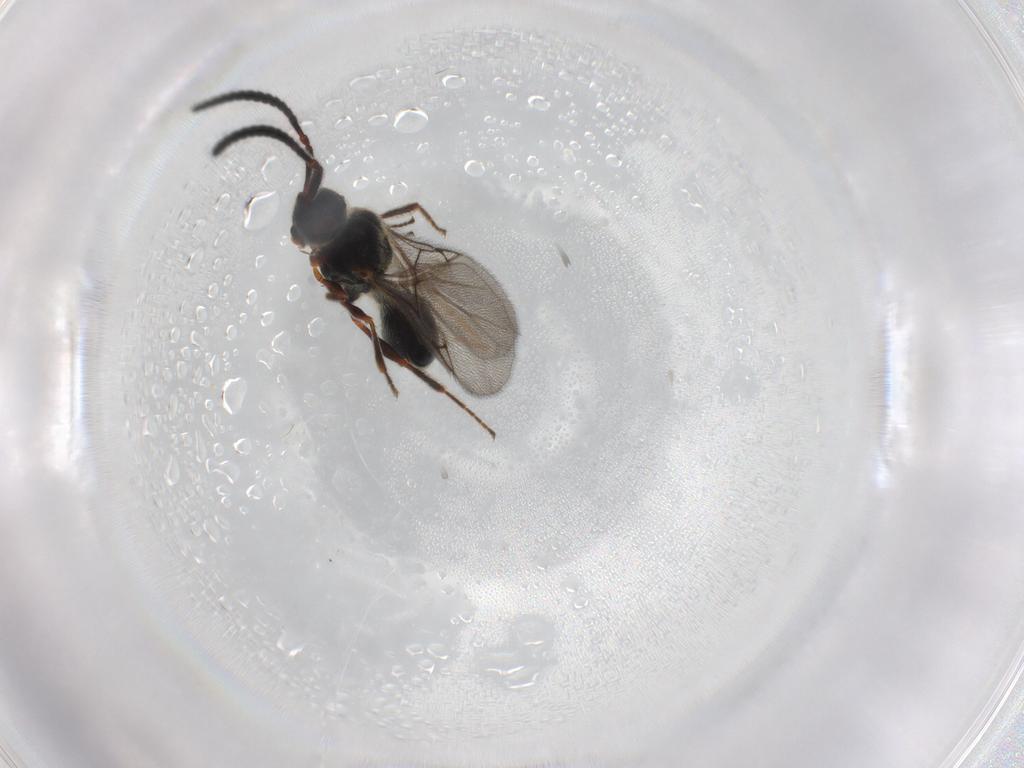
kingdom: Animalia
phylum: Arthropoda
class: Insecta
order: Hymenoptera
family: Diapriidae
